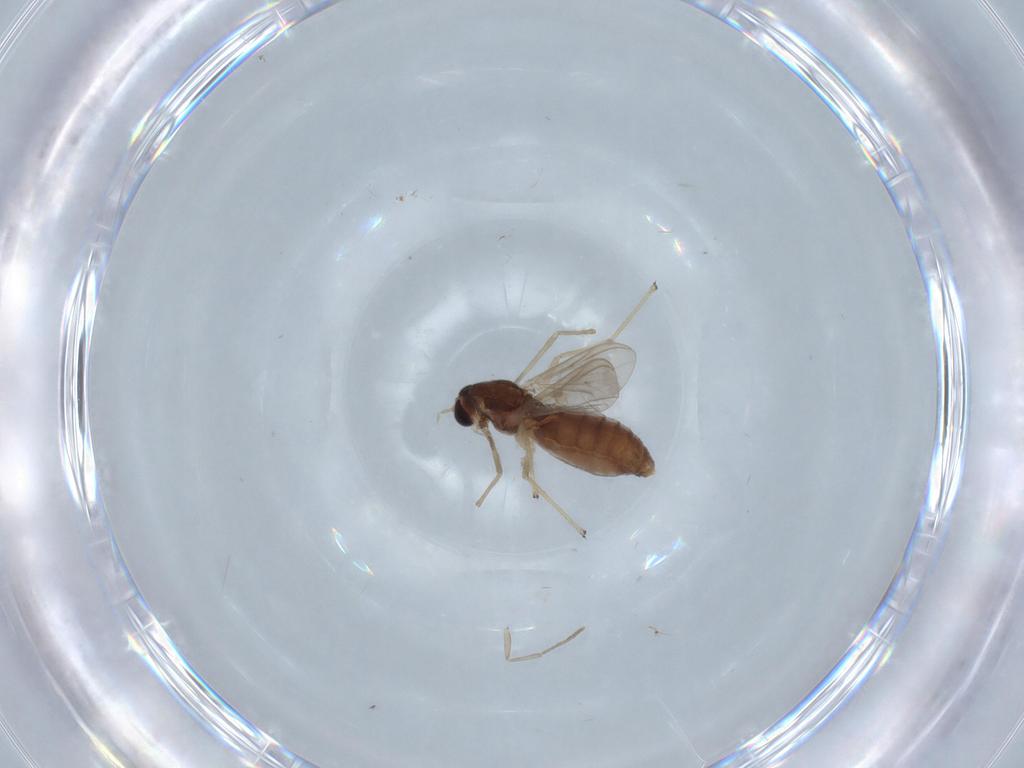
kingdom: Animalia
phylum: Arthropoda
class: Insecta
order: Diptera
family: Chironomidae
